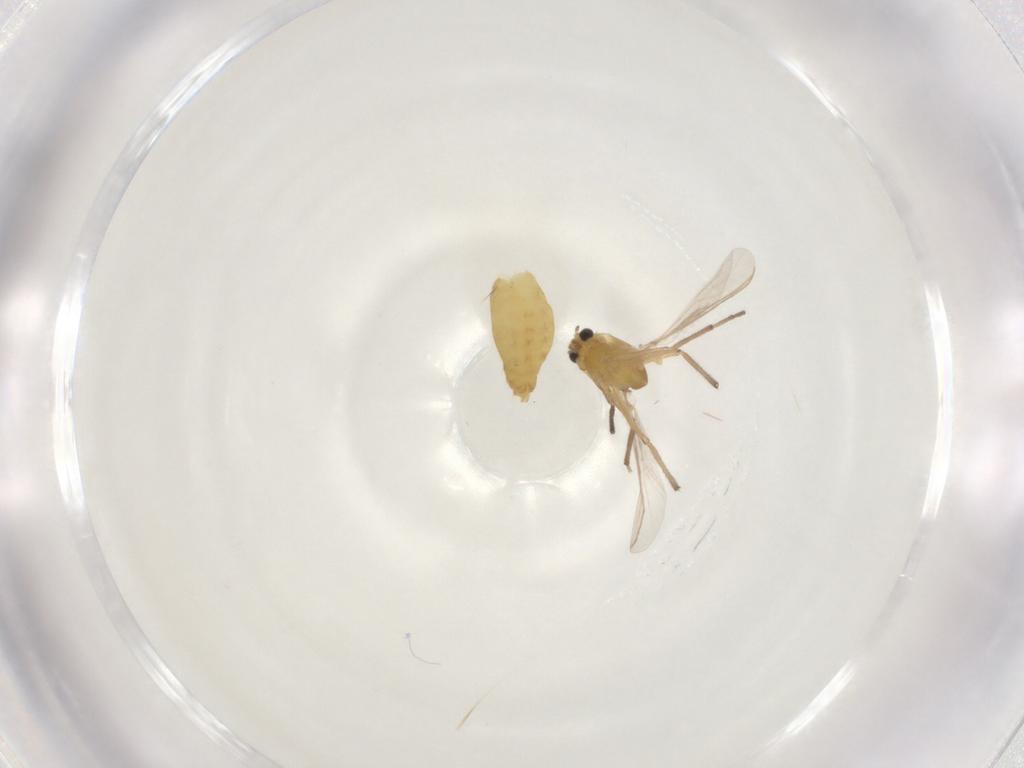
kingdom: Animalia
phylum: Arthropoda
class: Insecta
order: Diptera
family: Chironomidae
